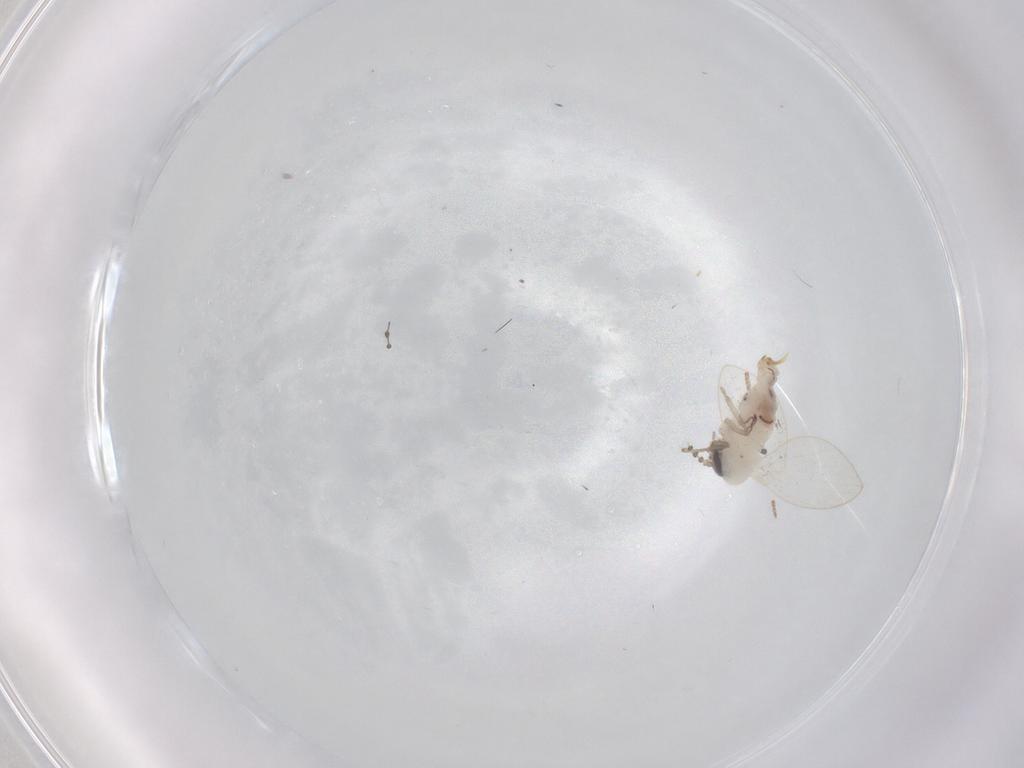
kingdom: Animalia
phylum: Arthropoda
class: Insecta
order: Diptera
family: Psychodidae
